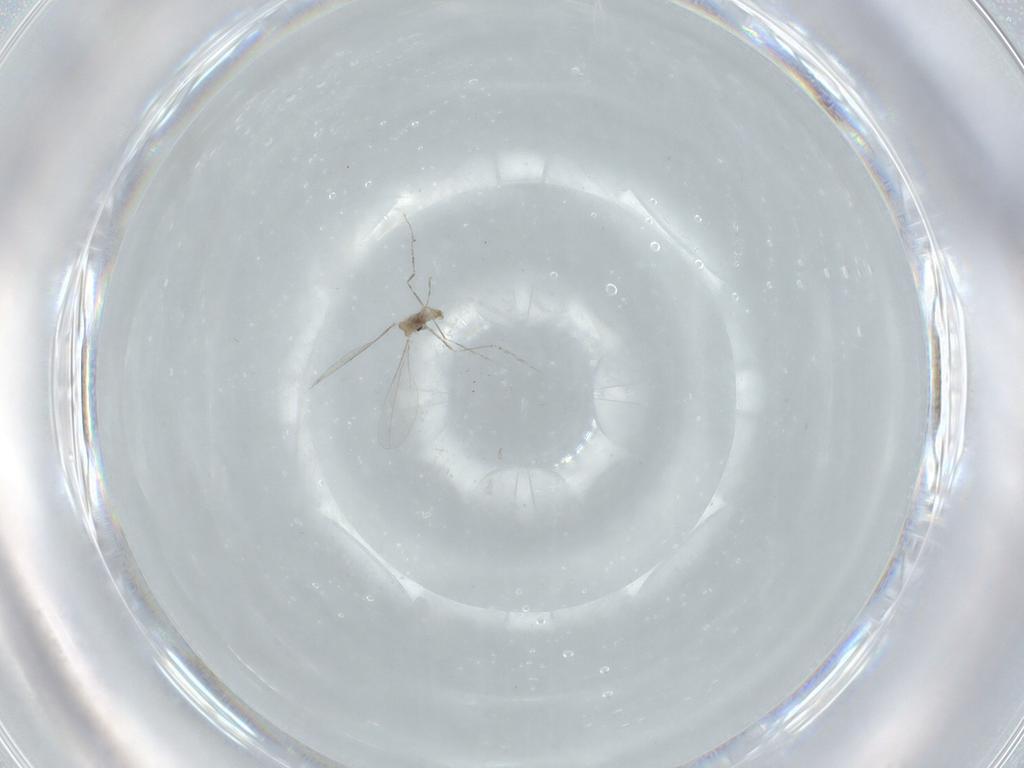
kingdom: Animalia
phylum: Arthropoda
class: Insecta
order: Diptera
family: Cecidomyiidae
